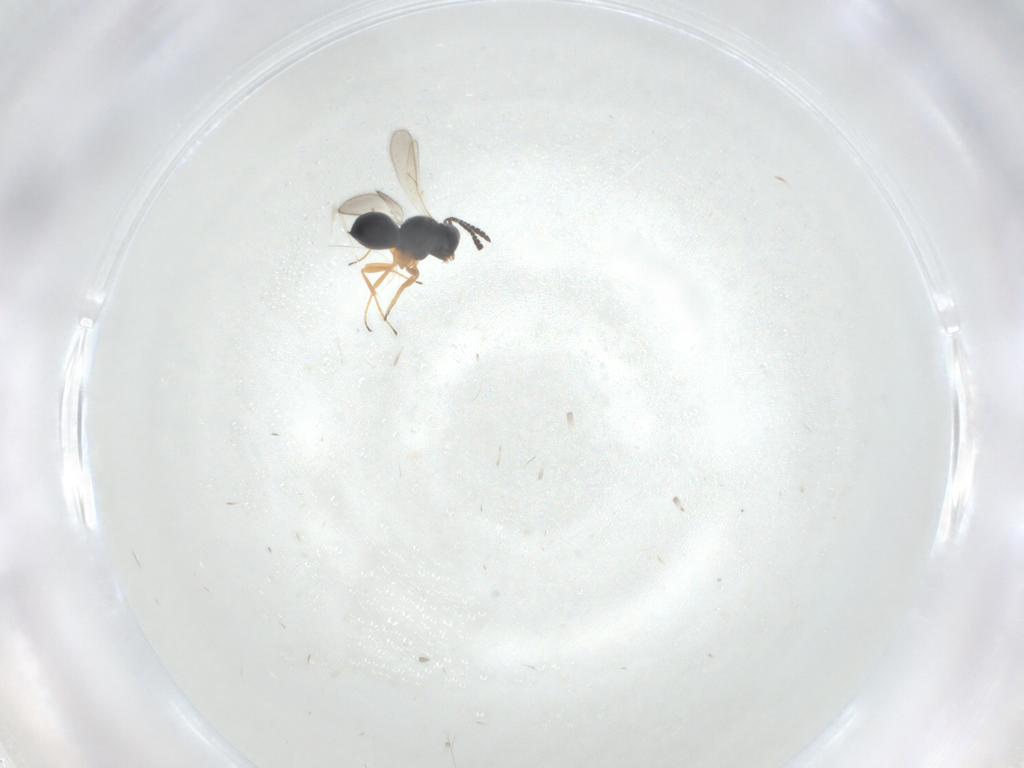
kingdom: Animalia
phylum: Arthropoda
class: Insecta
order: Hymenoptera
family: Scelionidae
